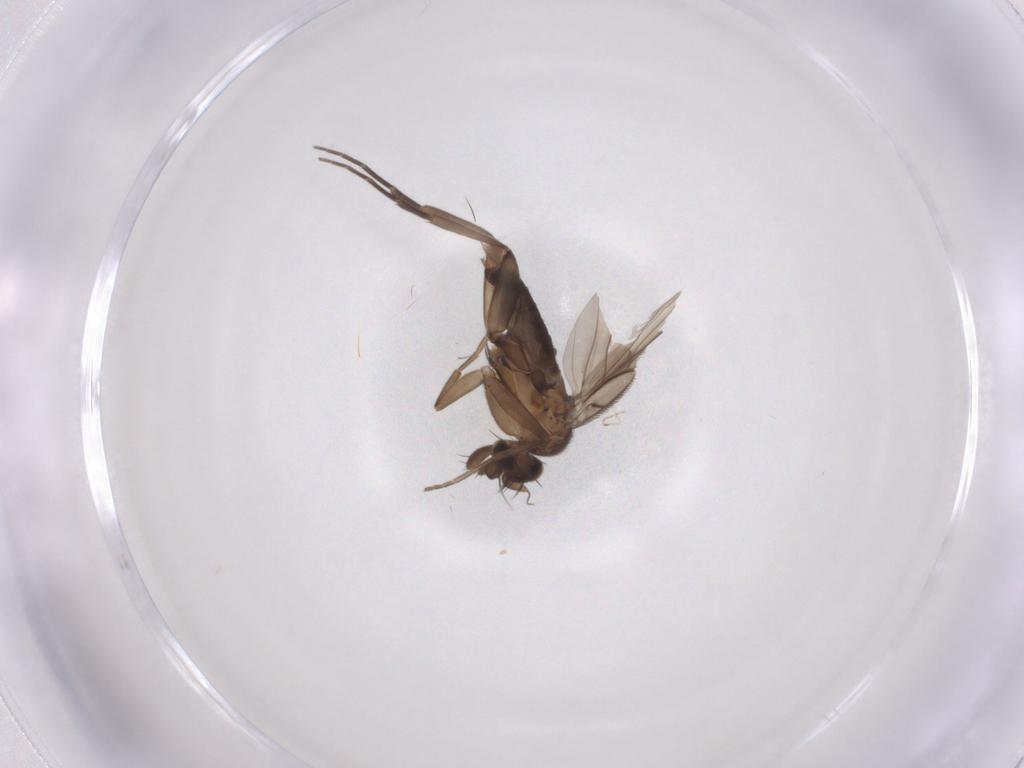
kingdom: Animalia
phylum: Arthropoda
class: Insecta
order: Diptera
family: Phoridae
